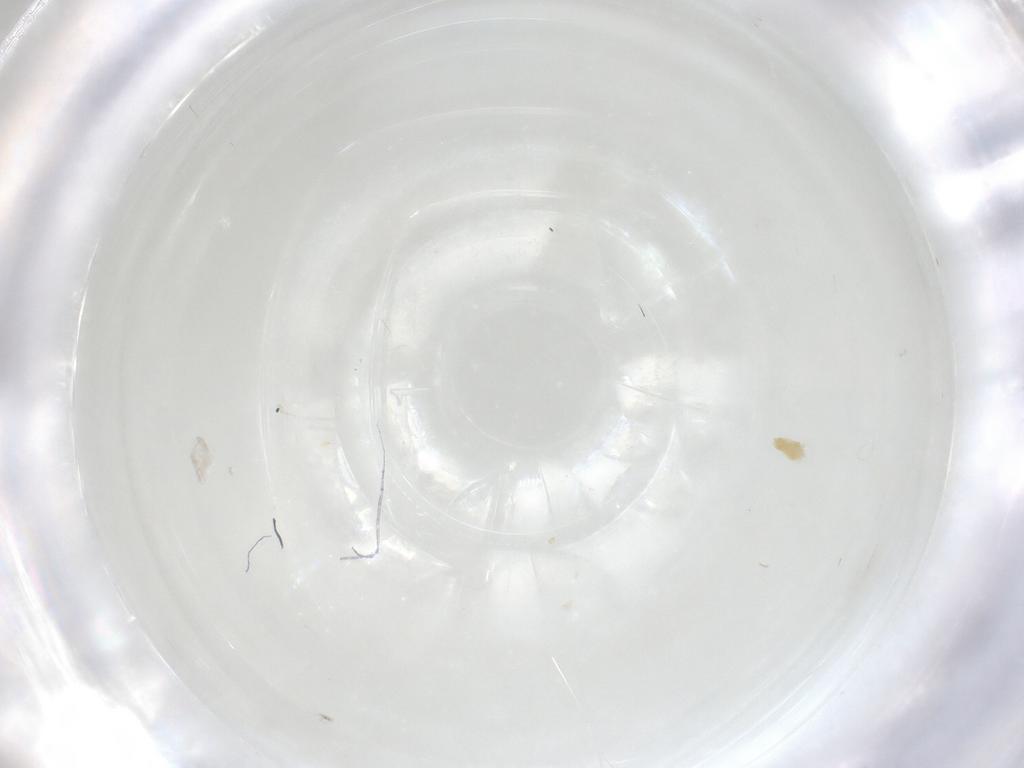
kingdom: Animalia
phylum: Arthropoda
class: Arachnida
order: Trombidiformes
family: Eupodidae
